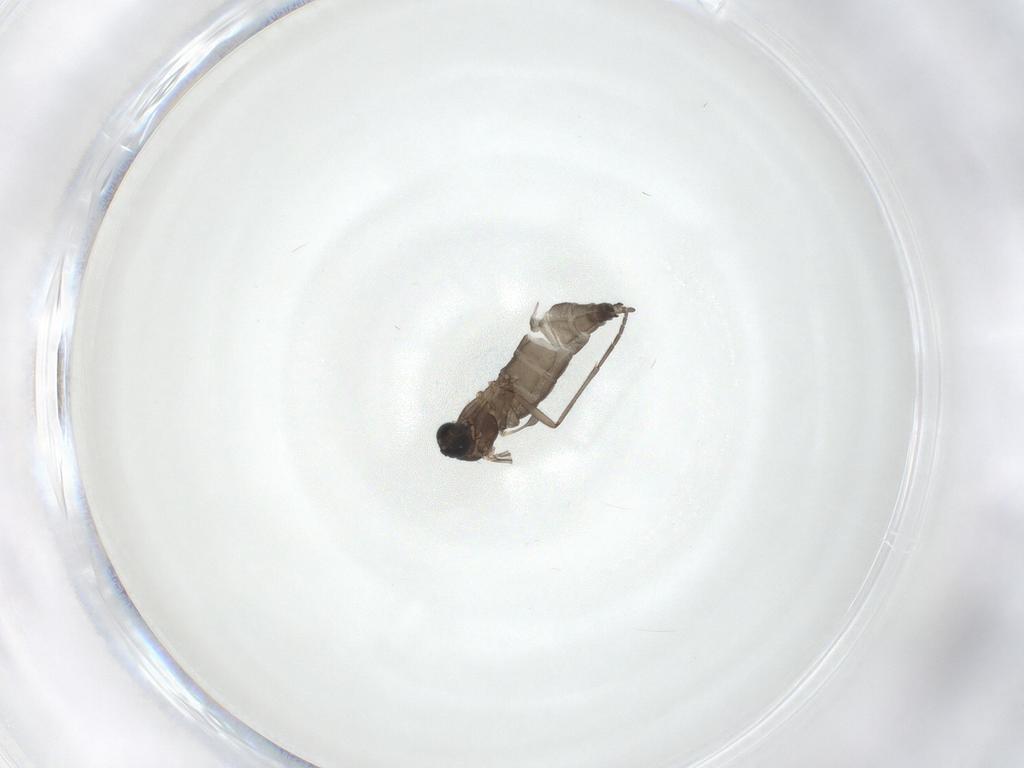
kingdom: Animalia
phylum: Arthropoda
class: Insecta
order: Diptera
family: Sciaridae
